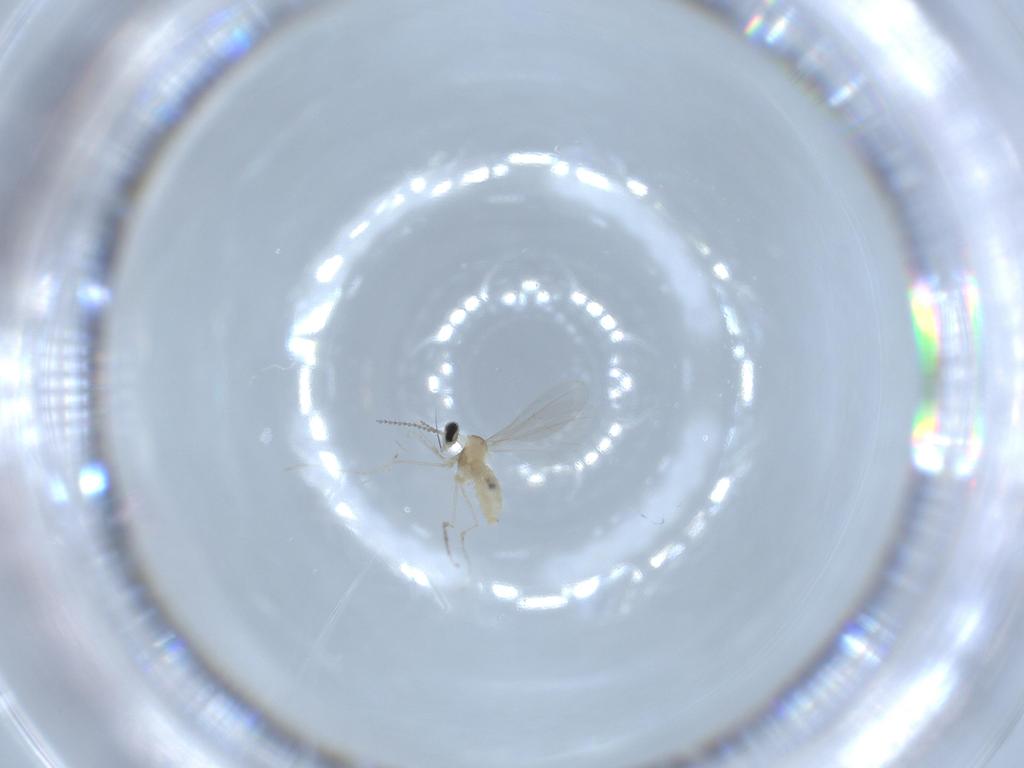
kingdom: Animalia
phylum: Arthropoda
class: Insecta
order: Diptera
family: Cecidomyiidae
